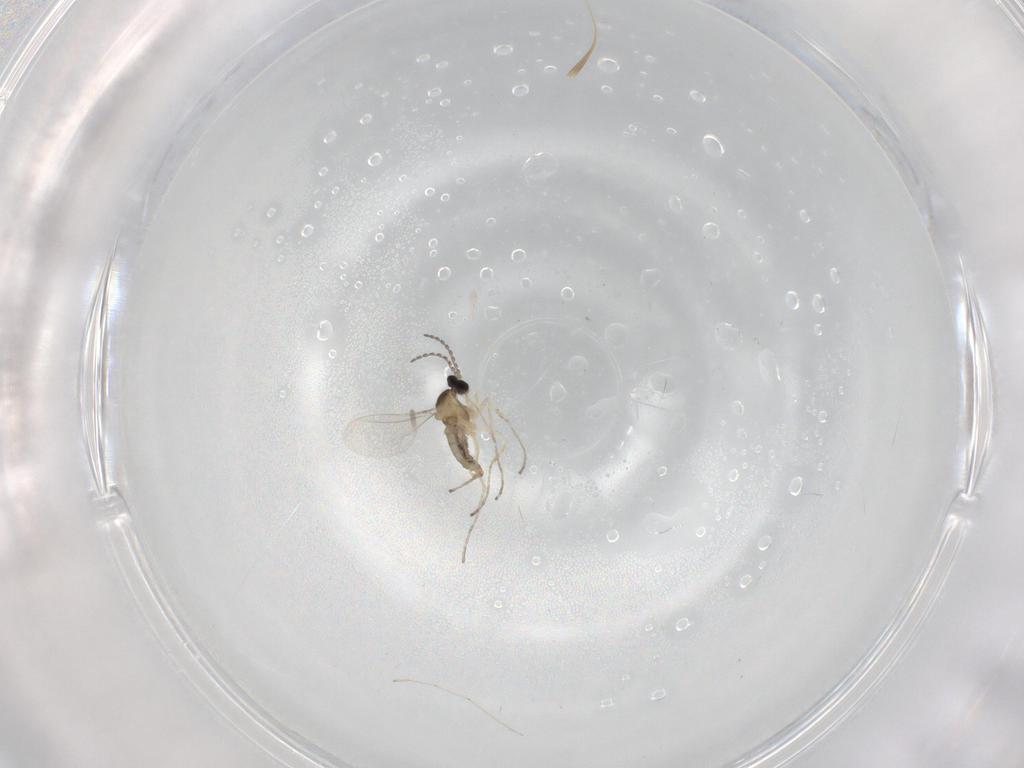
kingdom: Animalia
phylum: Arthropoda
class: Insecta
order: Diptera
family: Cecidomyiidae
